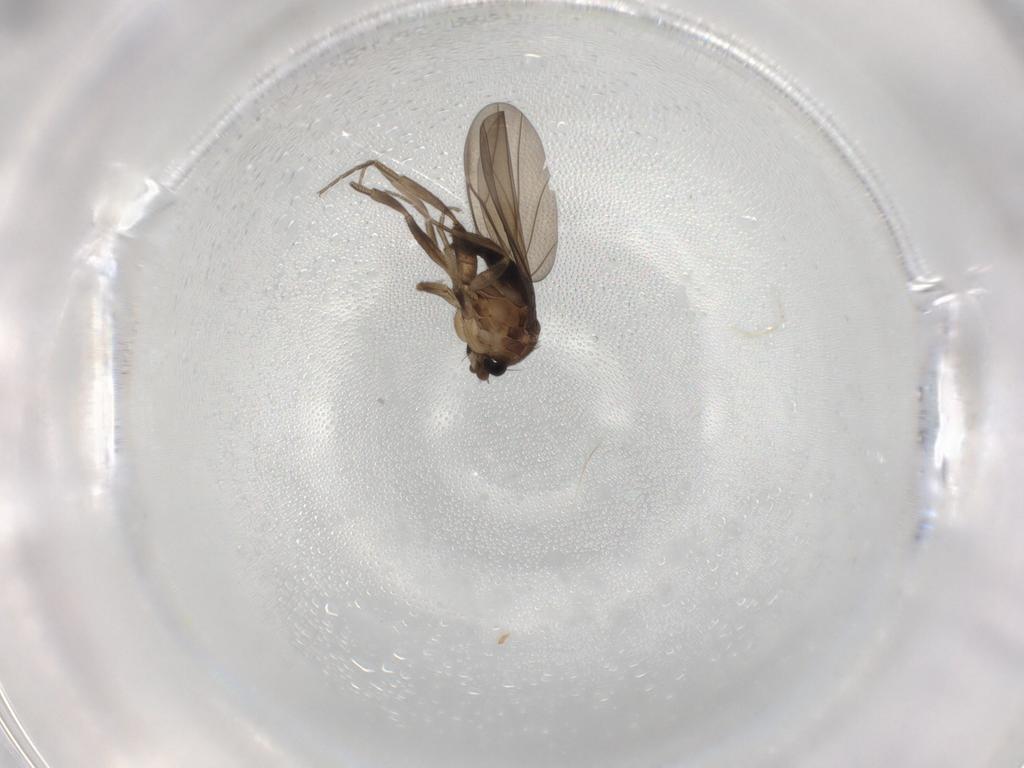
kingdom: Animalia
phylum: Arthropoda
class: Insecta
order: Diptera
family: Phoridae
